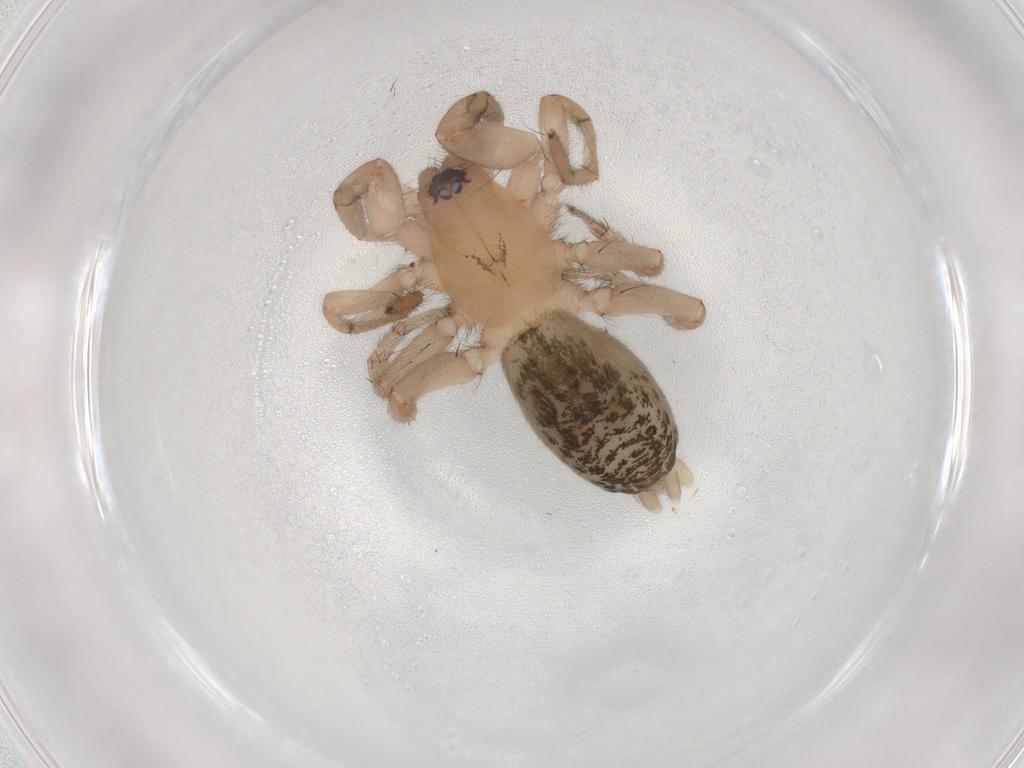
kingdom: Animalia
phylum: Arthropoda
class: Arachnida
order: Araneae
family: Gnaphosidae
